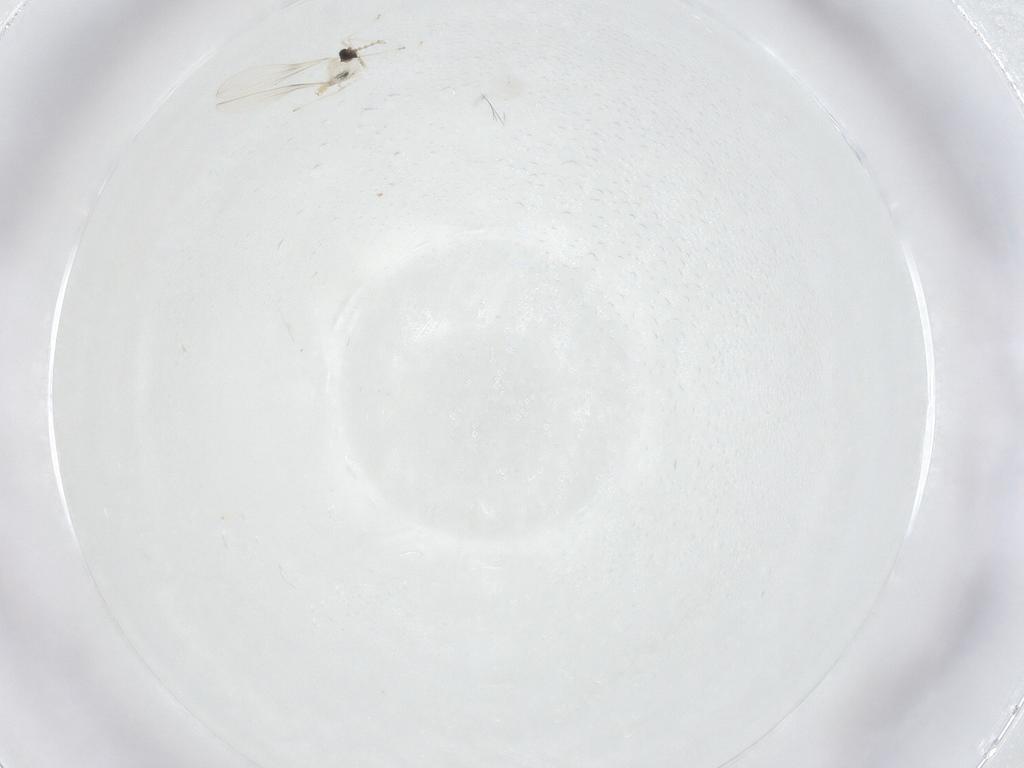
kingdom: Animalia
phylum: Arthropoda
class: Insecta
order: Diptera
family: Cecidomyiidae
